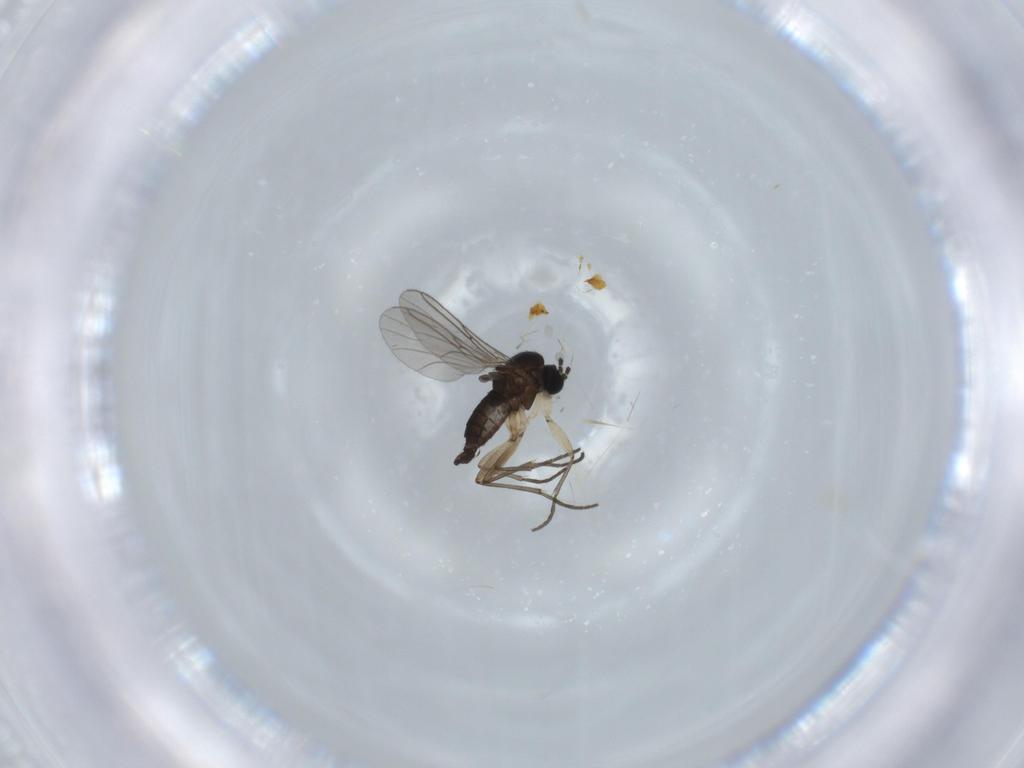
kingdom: Animalia
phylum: Arthropoda
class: Insecta
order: Diptera
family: Sciaridae
